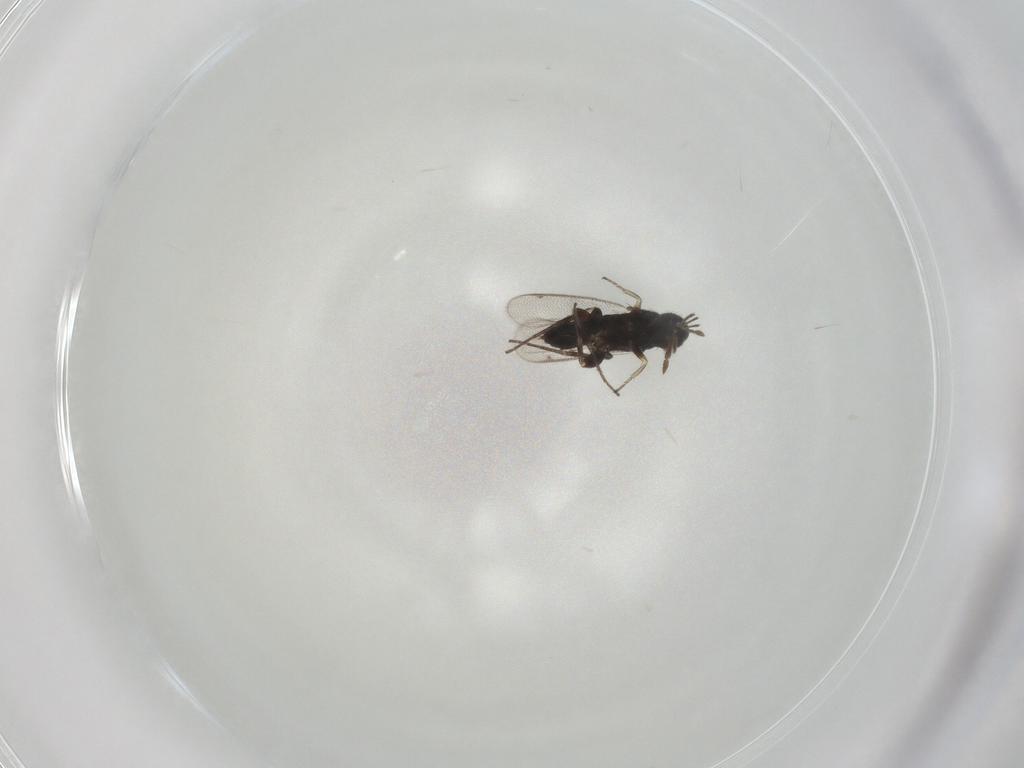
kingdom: Animalia
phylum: Arthropoda
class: Insecta
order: Hymenoptera
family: Eulophidae
